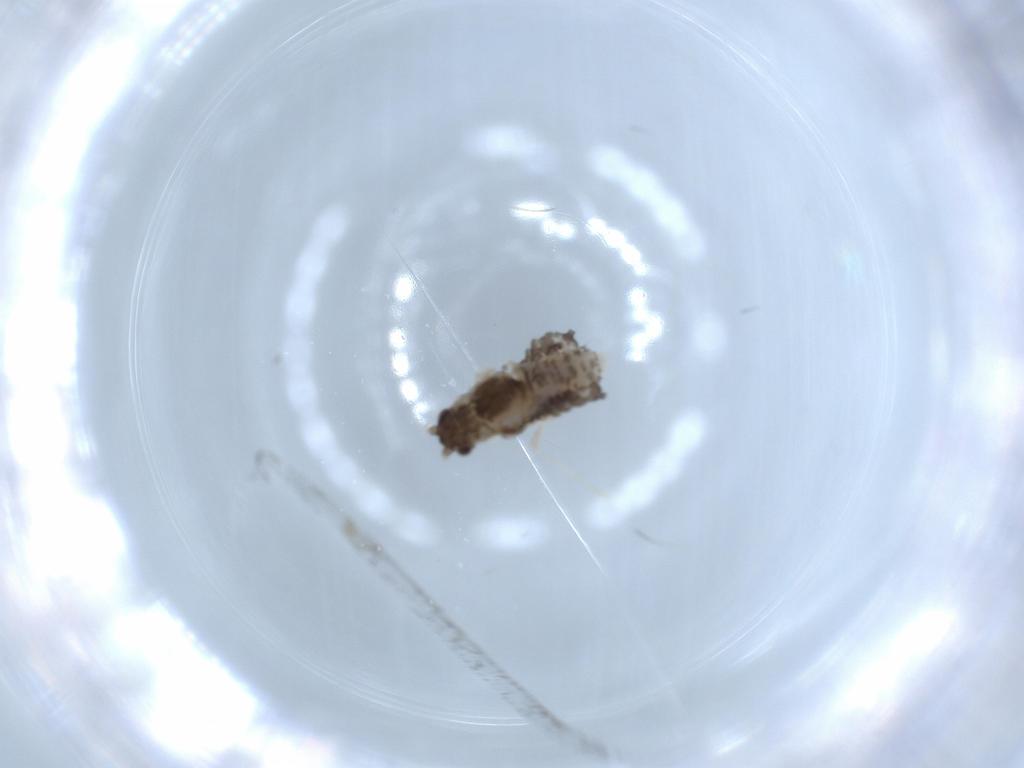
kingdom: Animalia
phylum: Arthropoda
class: Insecta
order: Hemiptera
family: Aphididae
